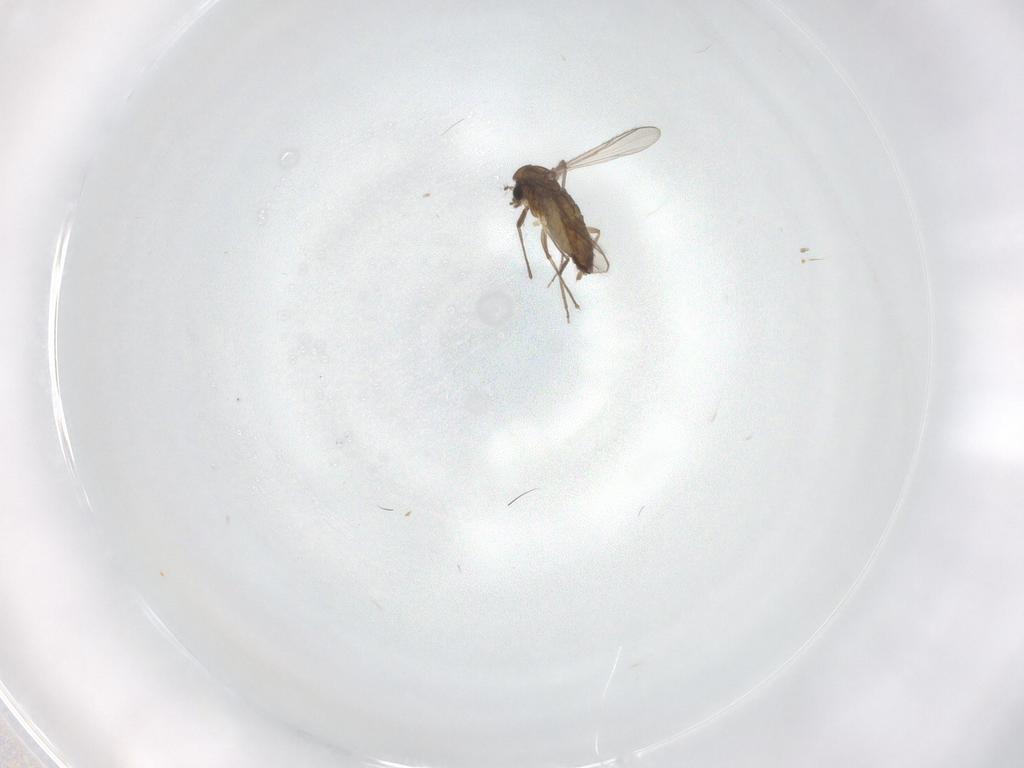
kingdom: Animalia
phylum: Arthropoda
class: Insecta
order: Diptera
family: Chironomidae
